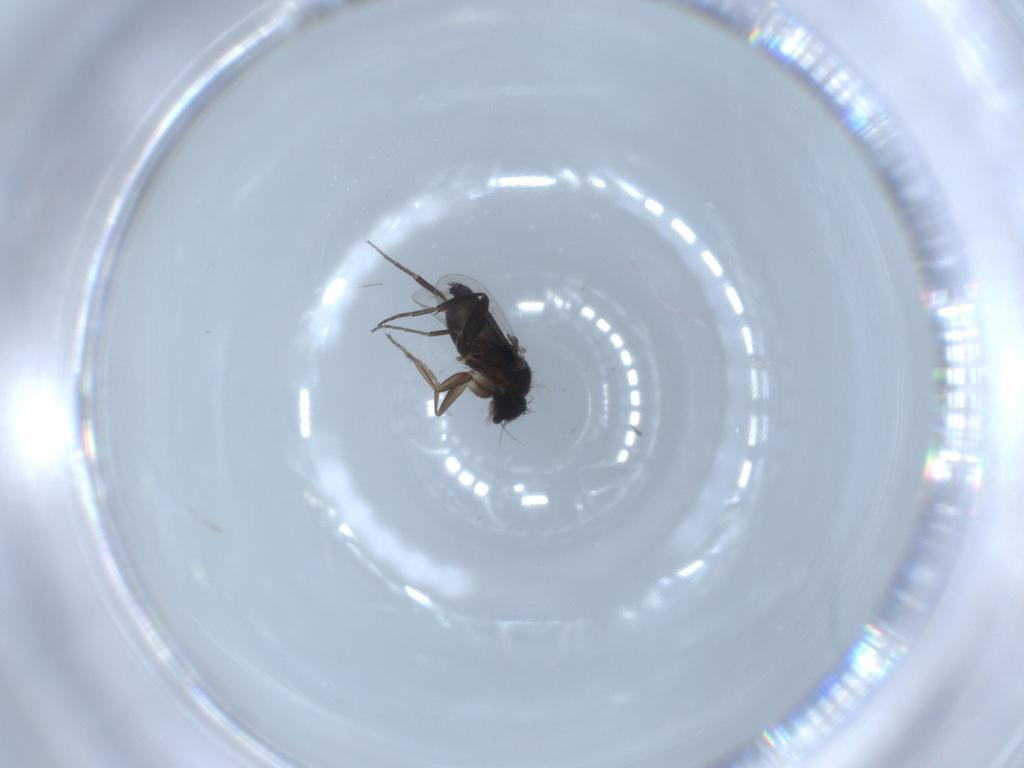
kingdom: Animalia
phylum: Arthropoda
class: Insecta
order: Diptera
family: Phoridae
